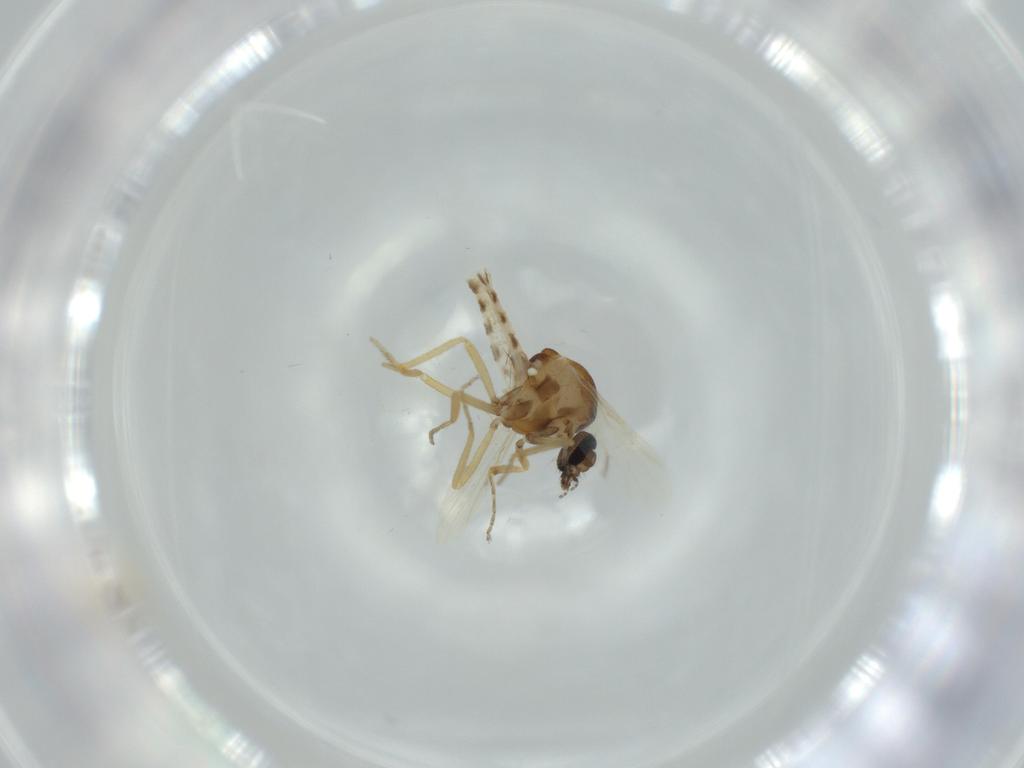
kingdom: Animalia
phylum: Arthropoda
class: Insecta
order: Diptera
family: Ceratopogonidae
